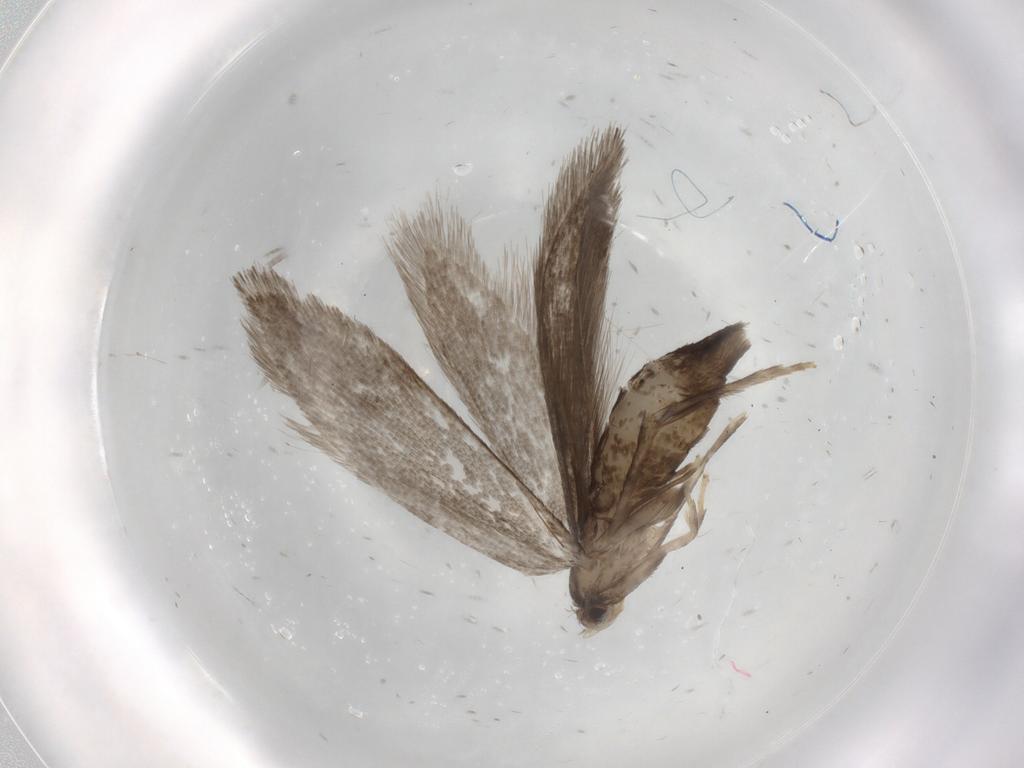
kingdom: Animalia
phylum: Arthropoda
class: Insecta
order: Lepidoptera
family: Tineidae
